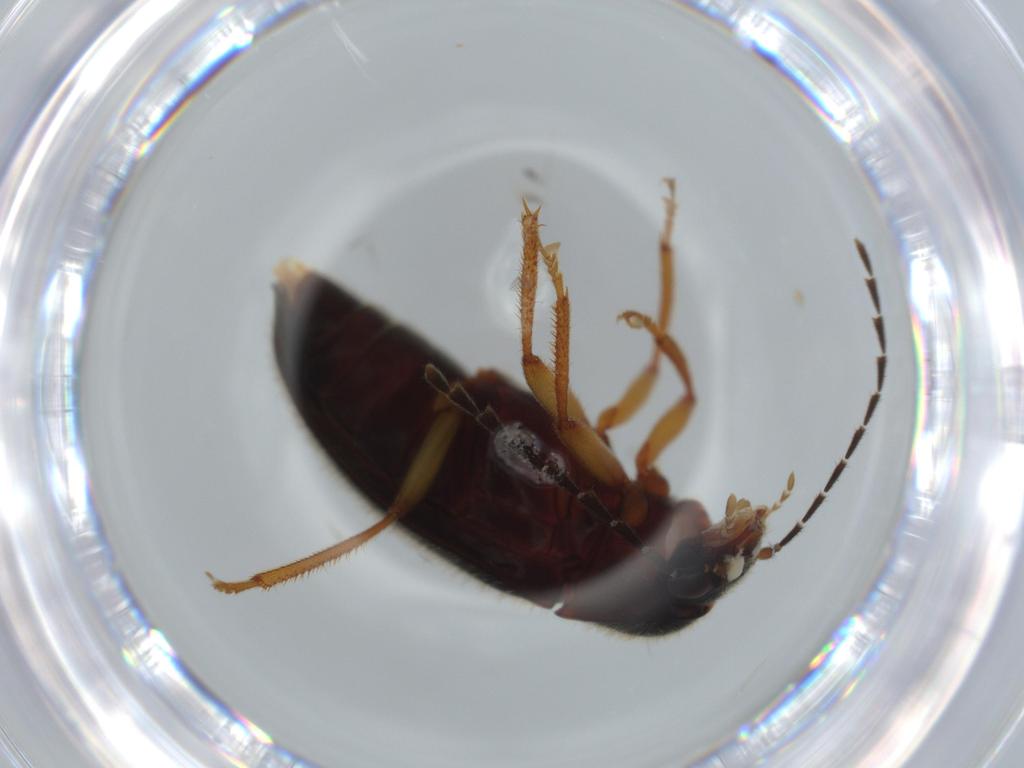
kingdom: Animalia
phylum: Arthropoda
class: Insecta
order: Coleoptera
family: Ptilodactylidae
